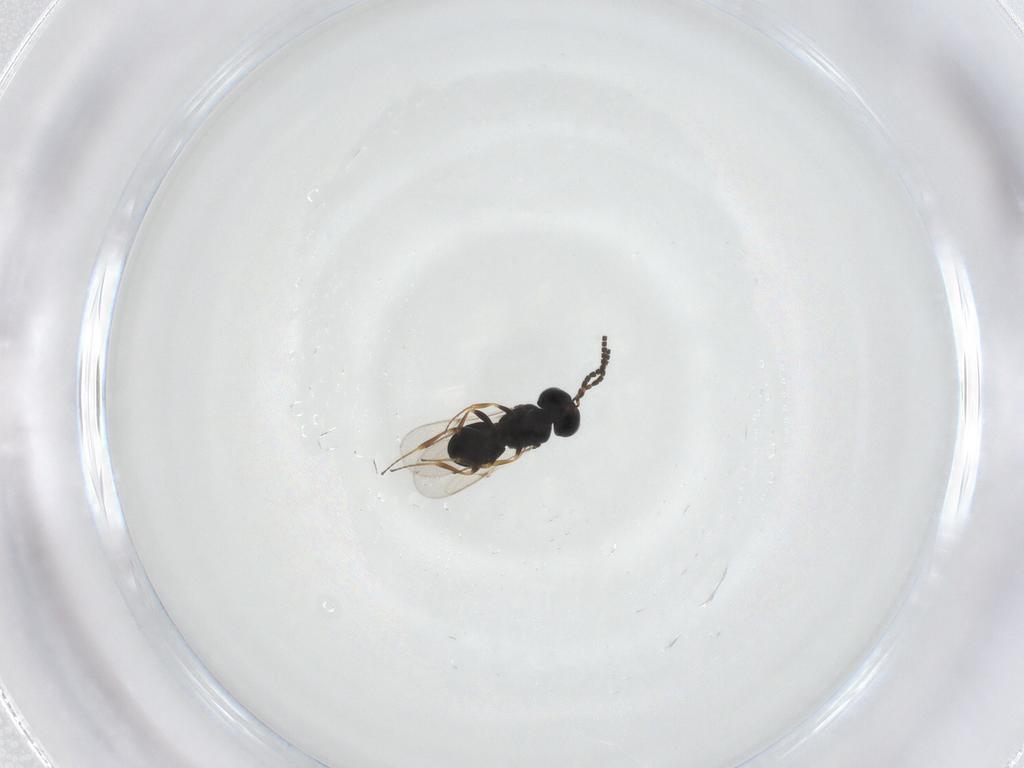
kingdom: Animalia
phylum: Arthropoda
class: Insecta
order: Hymenoptera
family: Scelionidae
